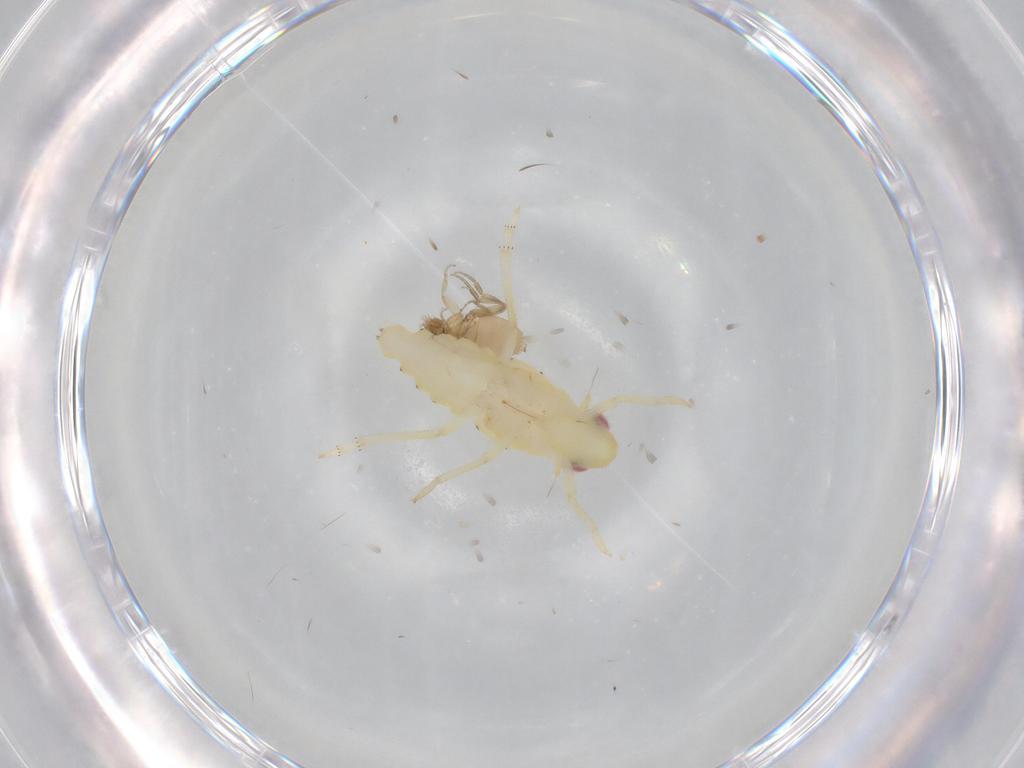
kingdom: Animalia
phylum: Arthropoda
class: Insecta
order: Hemiptera
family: Tropiduchidae
